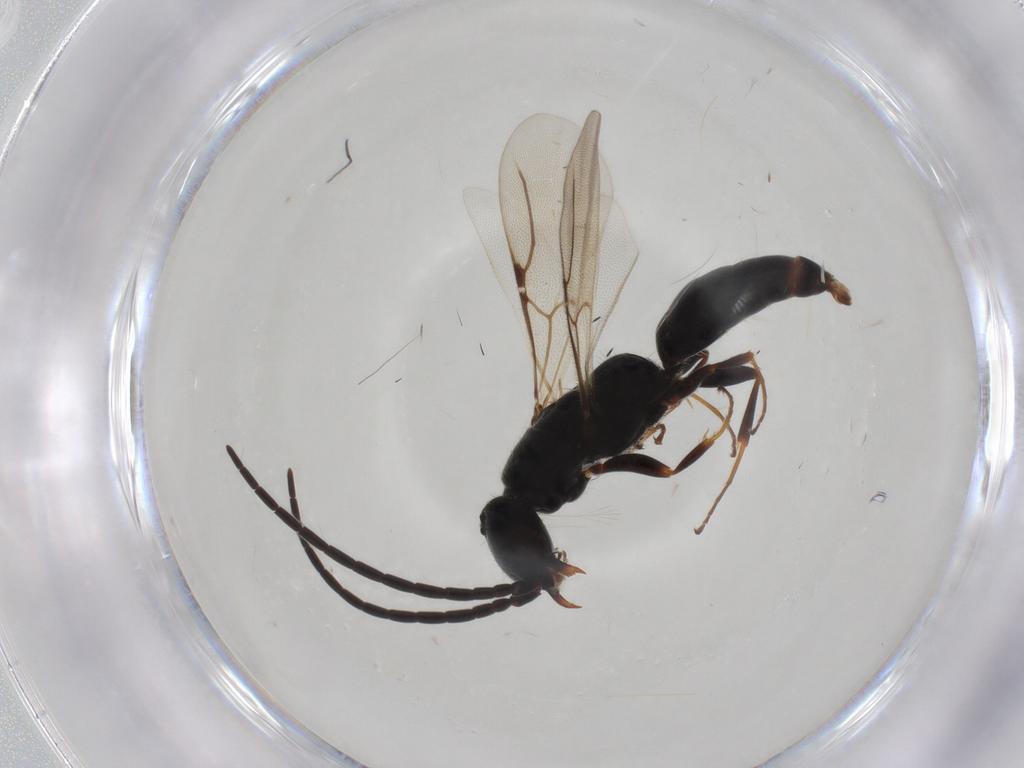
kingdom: Animalia
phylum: Arthropoda
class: Insecta
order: Hymenoptera
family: Bethylidae
